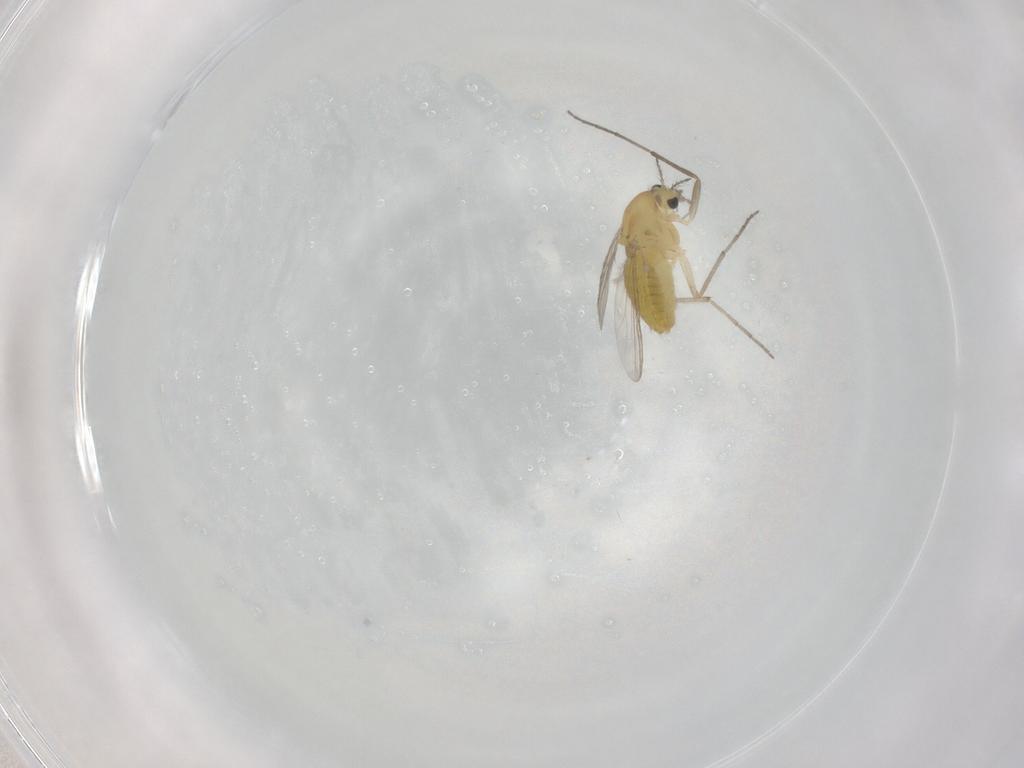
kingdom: Animalia
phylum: Arthropoda
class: Insecta
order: Diptera
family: Chironomidae
